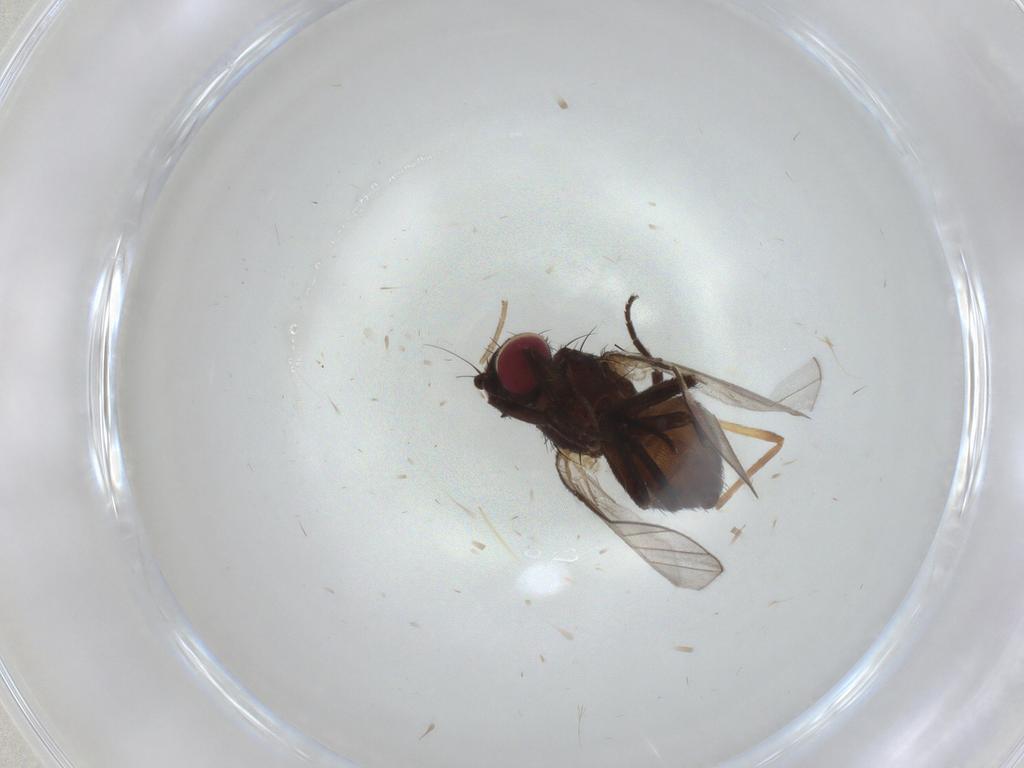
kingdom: Animalia
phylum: Arthropoda
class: Insecta
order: Diptera
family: Chironomidae
